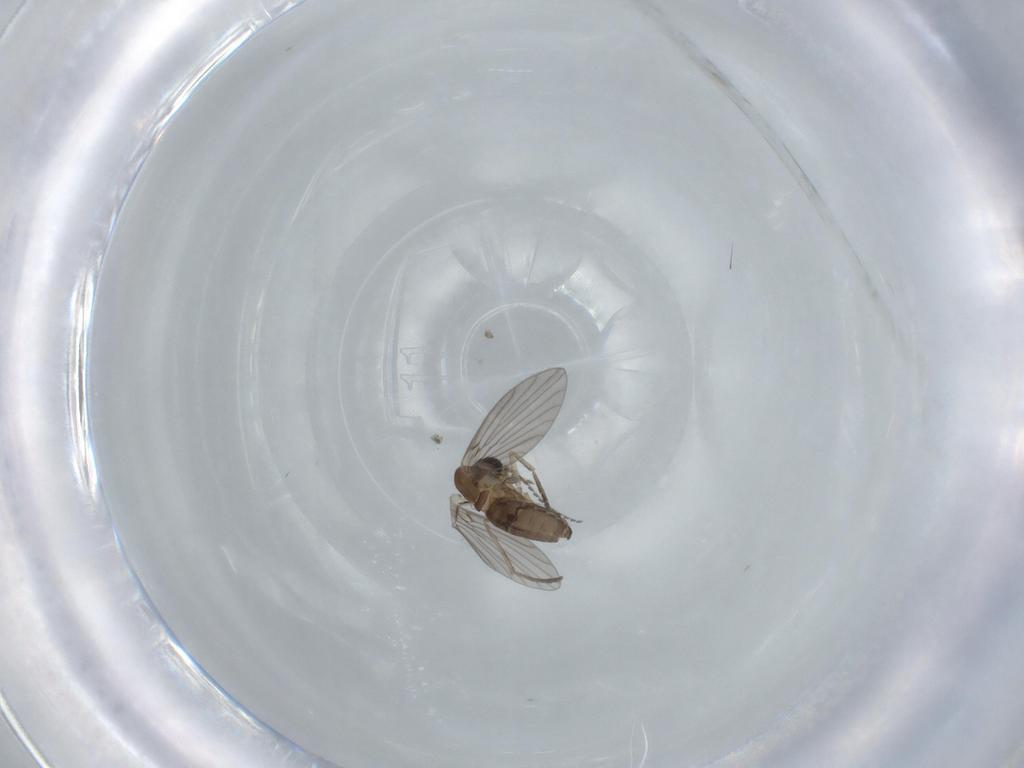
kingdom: Animalia
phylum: Arthropoda
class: Insecta
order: Diptera
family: Psychodidae
